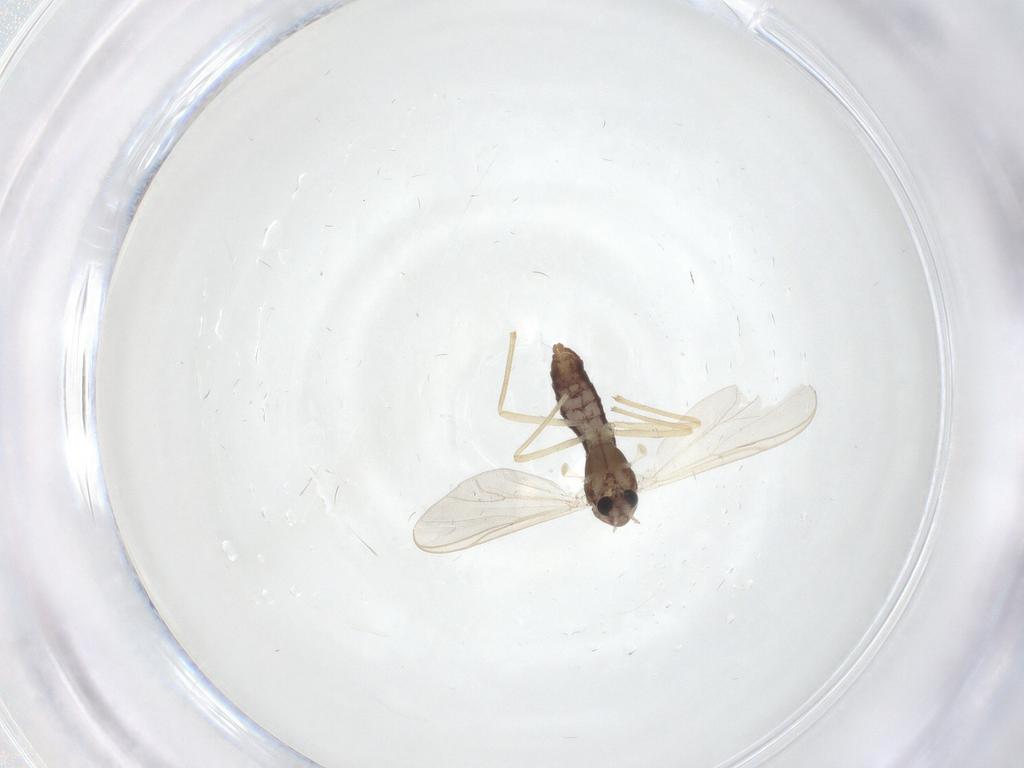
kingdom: Animalia
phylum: Arthropoda
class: Insecta
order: Diptera
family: Chironomidae
